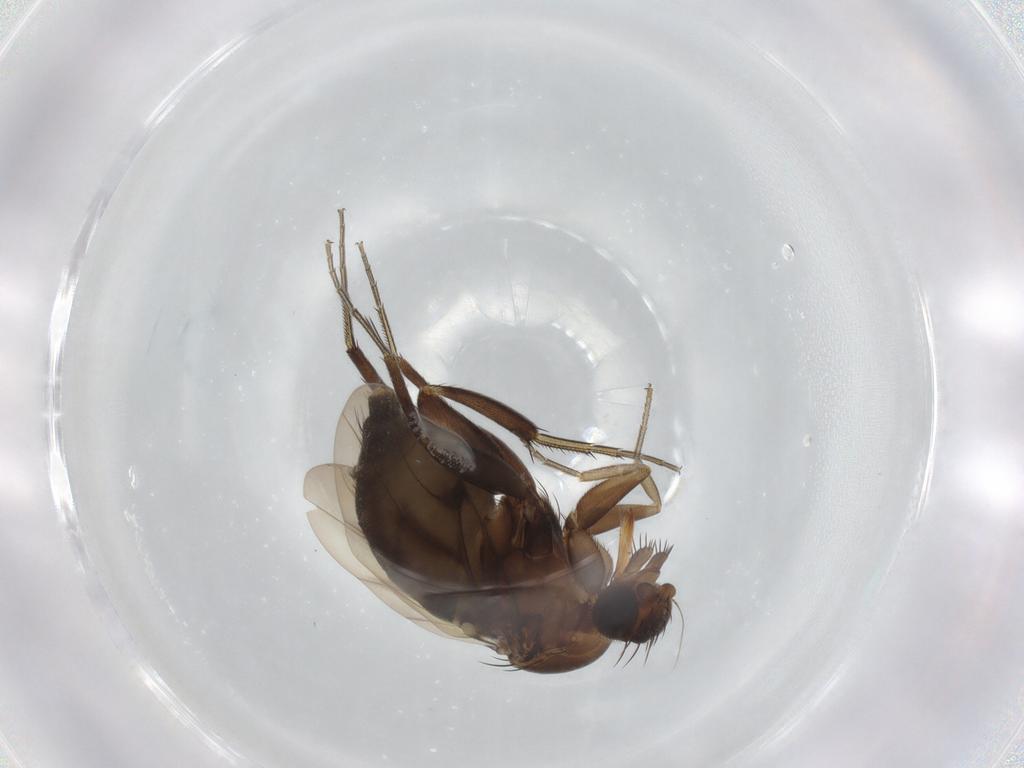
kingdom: Animalia
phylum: Arthropoda
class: Insecta
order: Diptera
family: Phoridae
